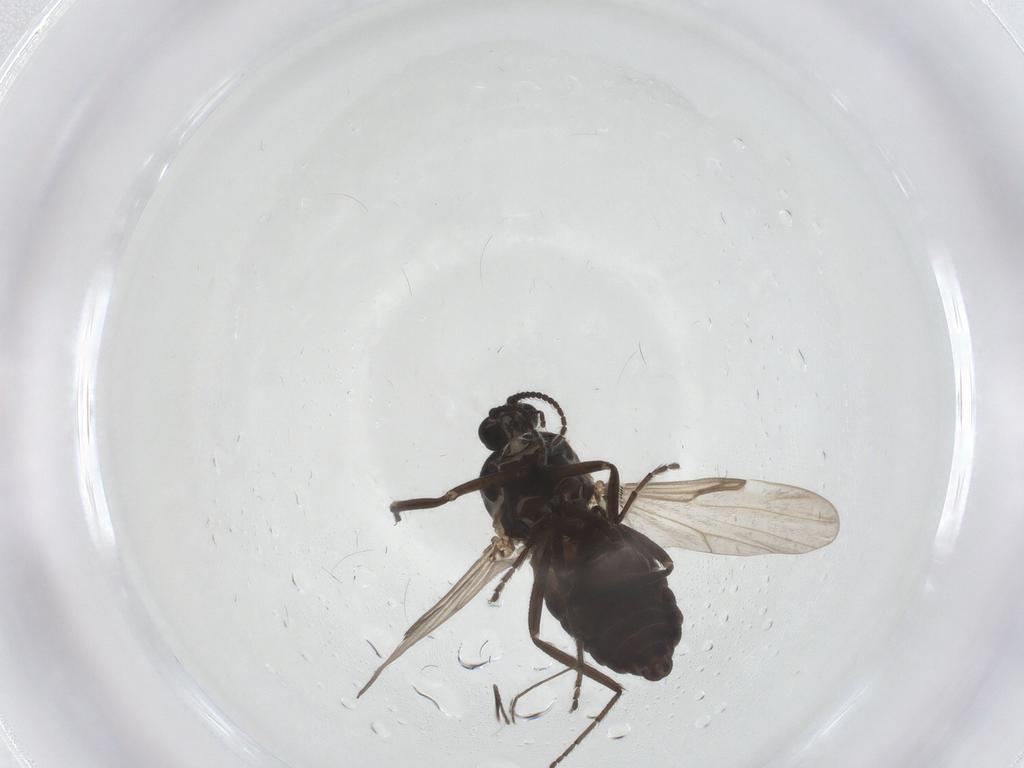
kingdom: Animalia
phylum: Arthropoda
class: Insecta
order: Diptera
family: Ceratopogonidae
